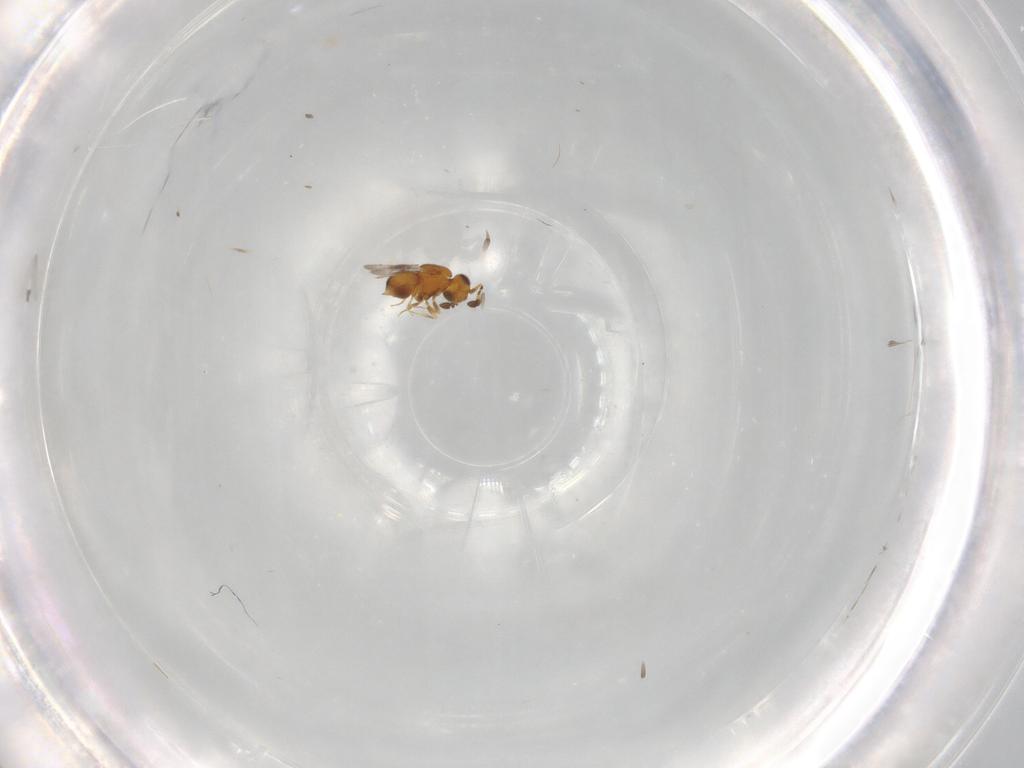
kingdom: Animalia
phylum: Arthropoda
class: Insecta
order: Hymenoptera
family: Ceraphronidae
